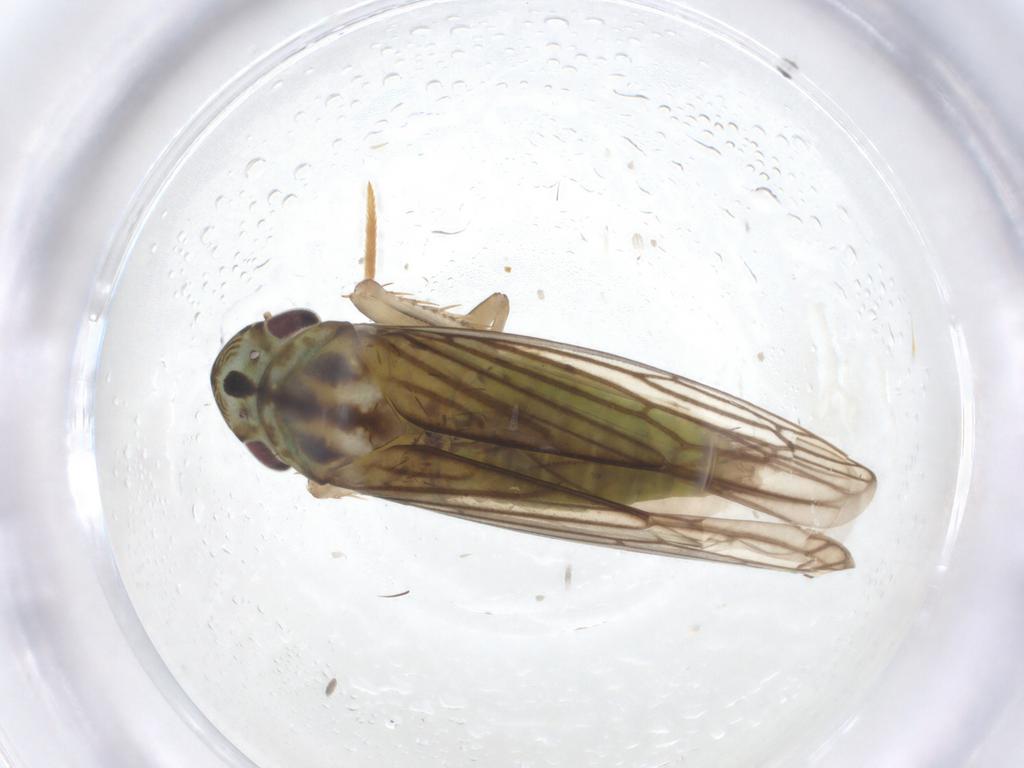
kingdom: Animalia
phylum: Arthropoda
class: Insecta
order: Hemiptera
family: Cicadellidae
